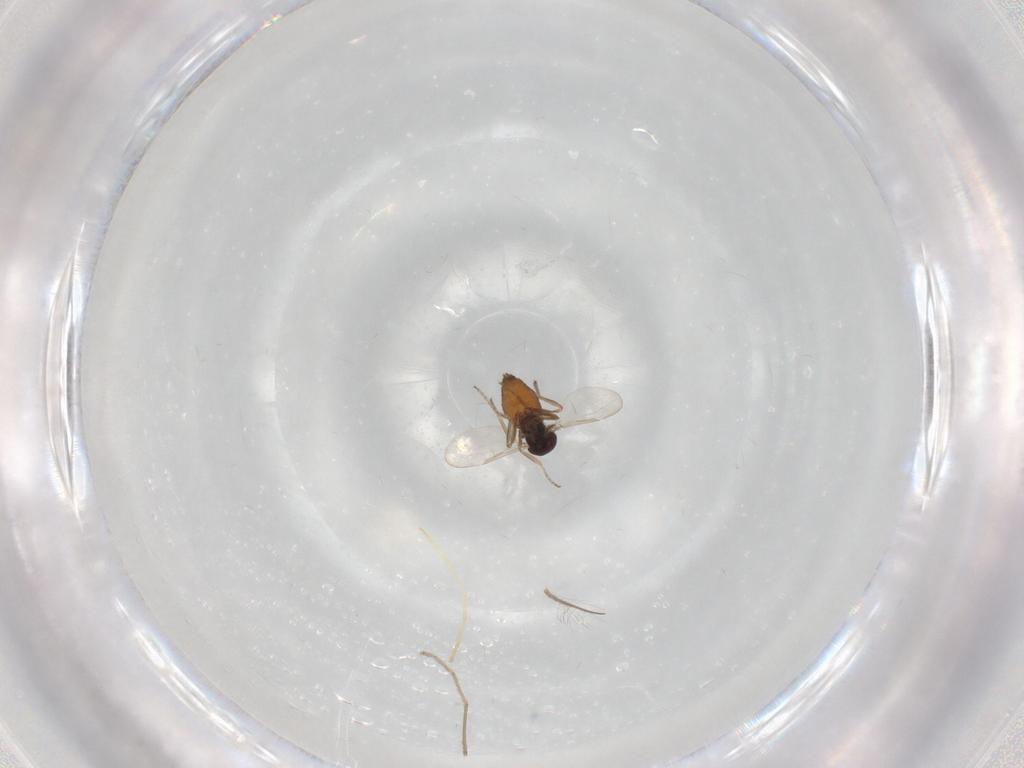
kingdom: Animalia
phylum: Arthropoda
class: Insecta
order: Diptera
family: Ceratopogonidae
